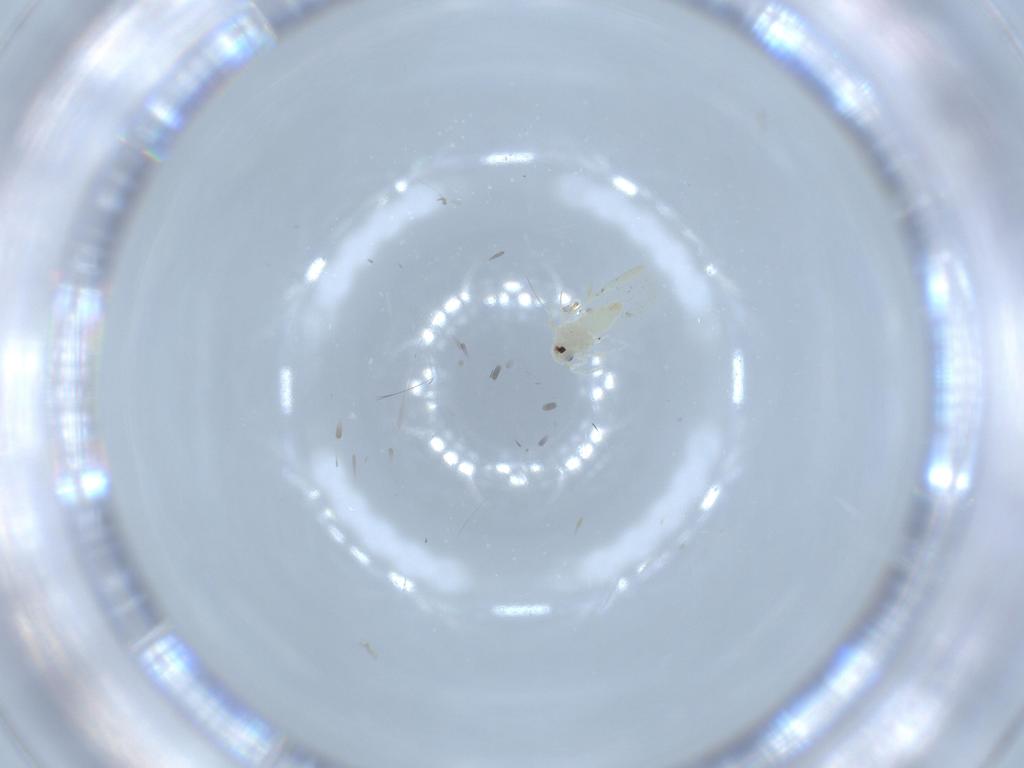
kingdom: Animalia
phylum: Arthropoda
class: Insecta
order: Hemiptera
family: Aleyrodidae
